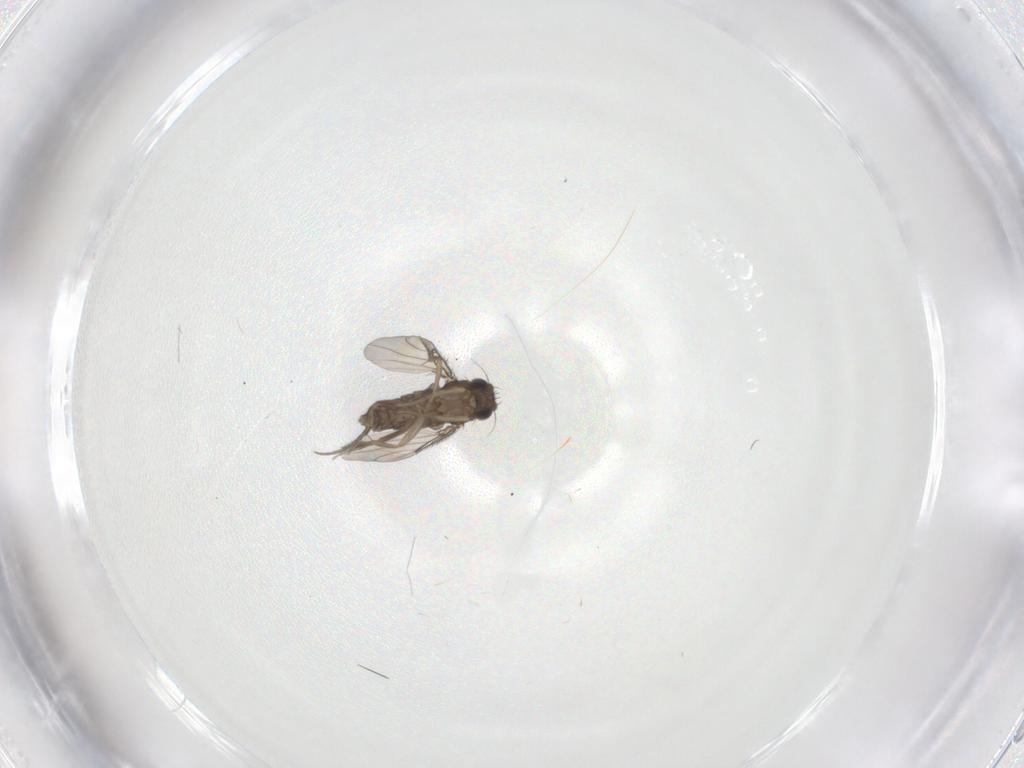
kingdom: Animalia
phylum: Arthropoda
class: Insecta
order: Diptera
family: Phoridae
